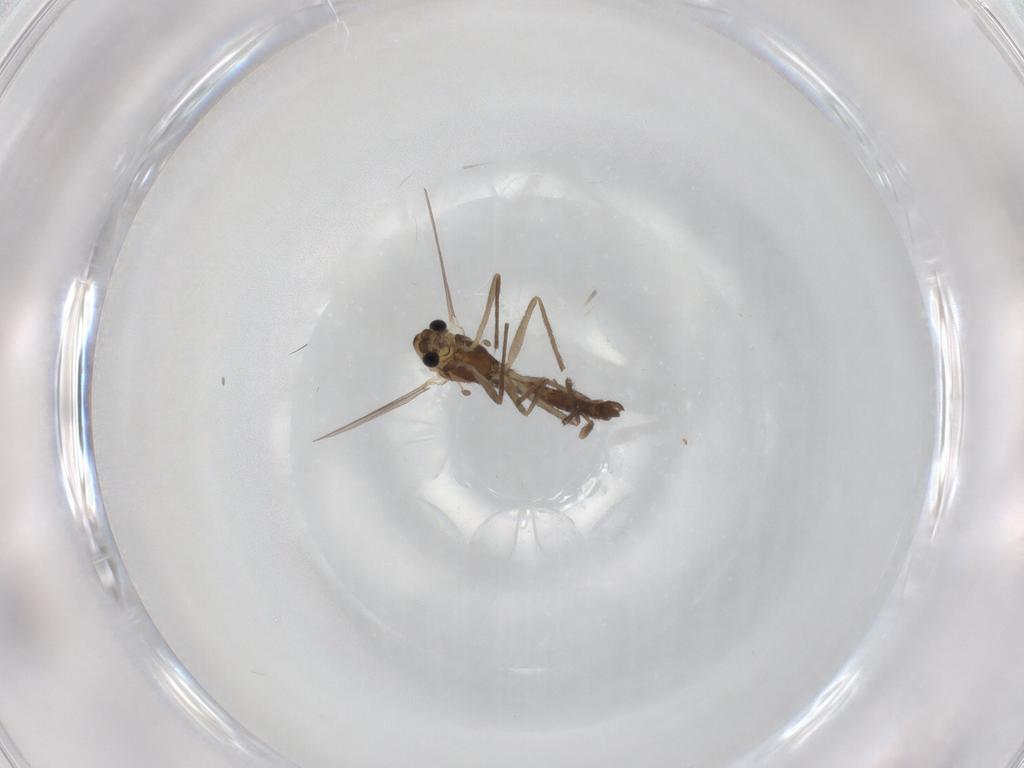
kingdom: Animalia
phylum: Arthropoda
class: Insecta
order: Diptera
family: Chironomidae
